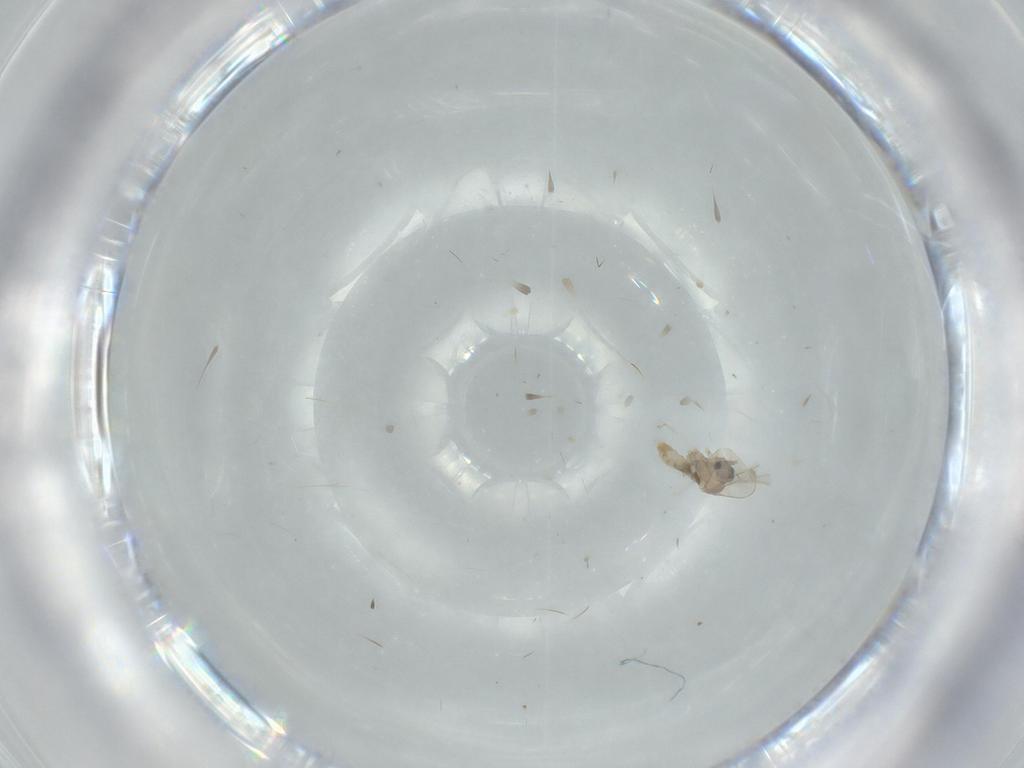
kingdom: Animalia
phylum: Arthropoda
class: Insecta
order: Diptera
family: Cecidomyiidae
